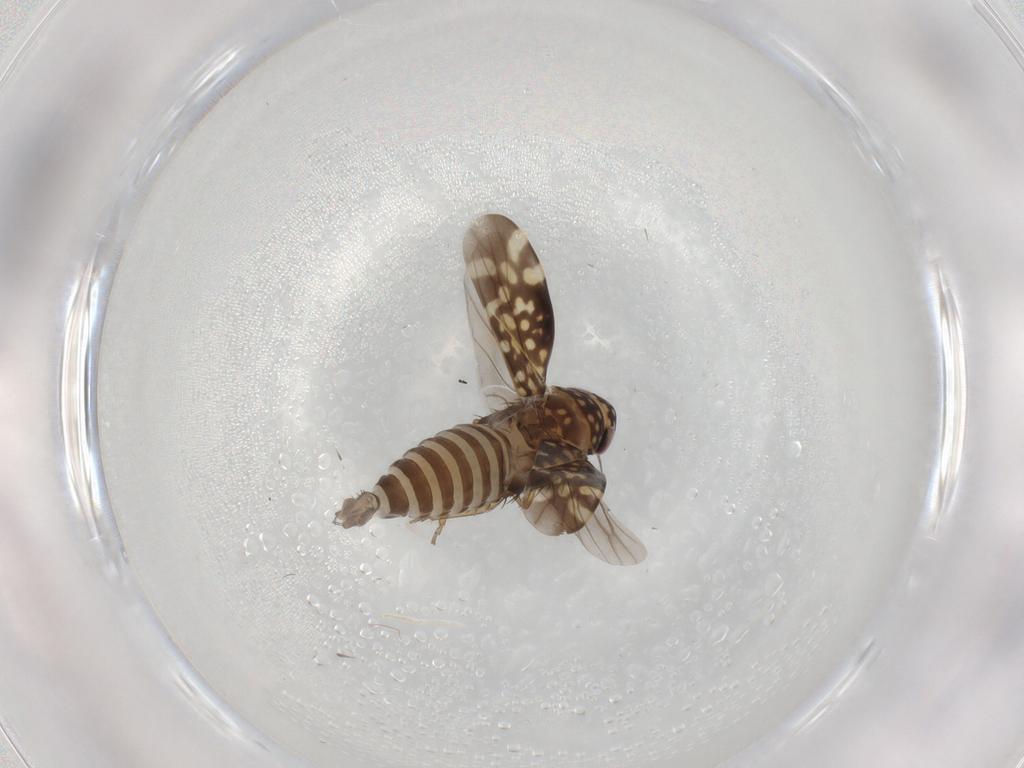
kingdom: Animalia
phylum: Arthropoda
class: Insecta
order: Hemiptera
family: Cicadellidae
